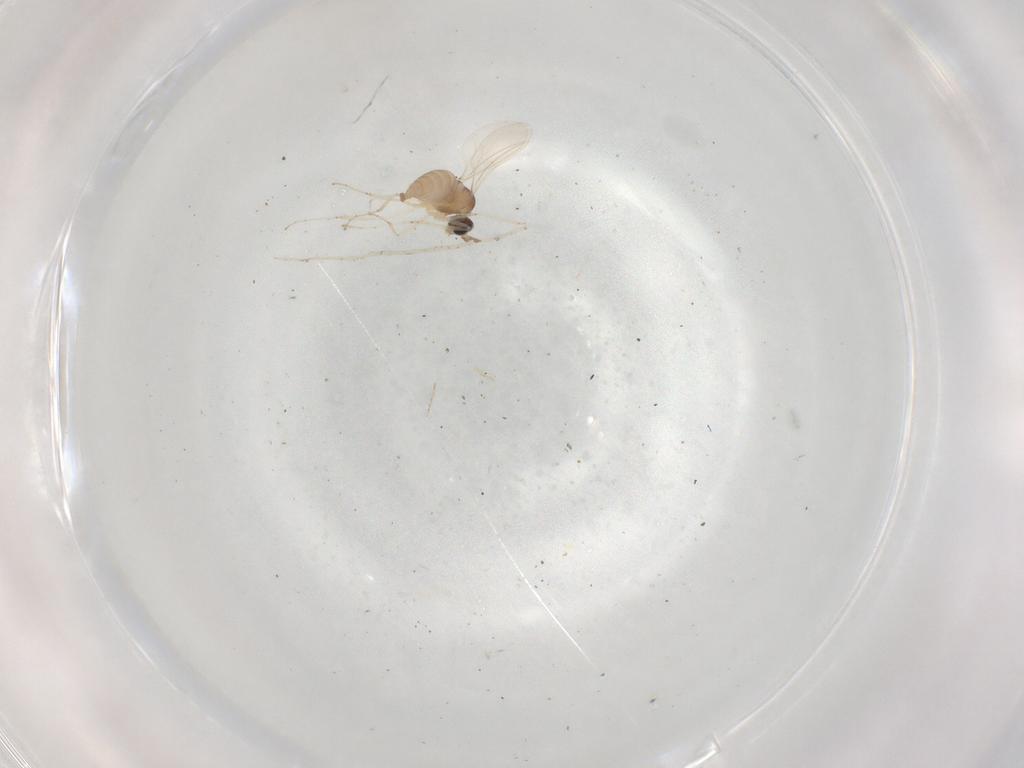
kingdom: Animalia
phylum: Arthropoda
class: Insecta
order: Diptera
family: Cecidomyiidae
